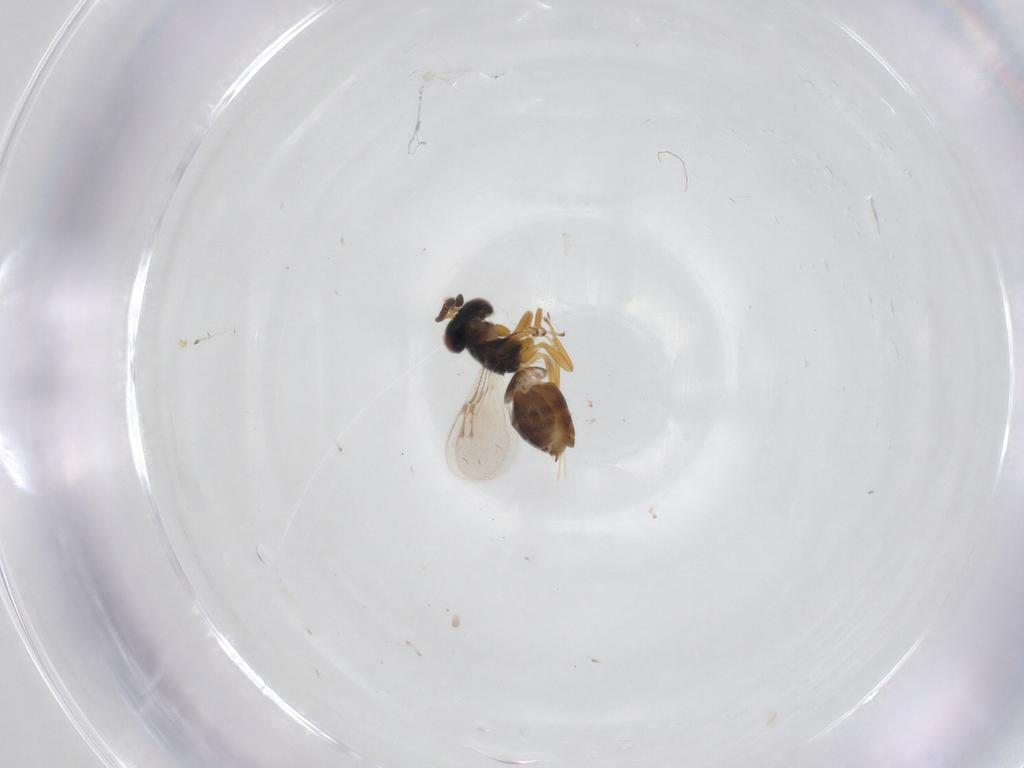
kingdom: Animalia
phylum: Arthropoda
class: Insecta
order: Hymenoptera
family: Pteromalidae
